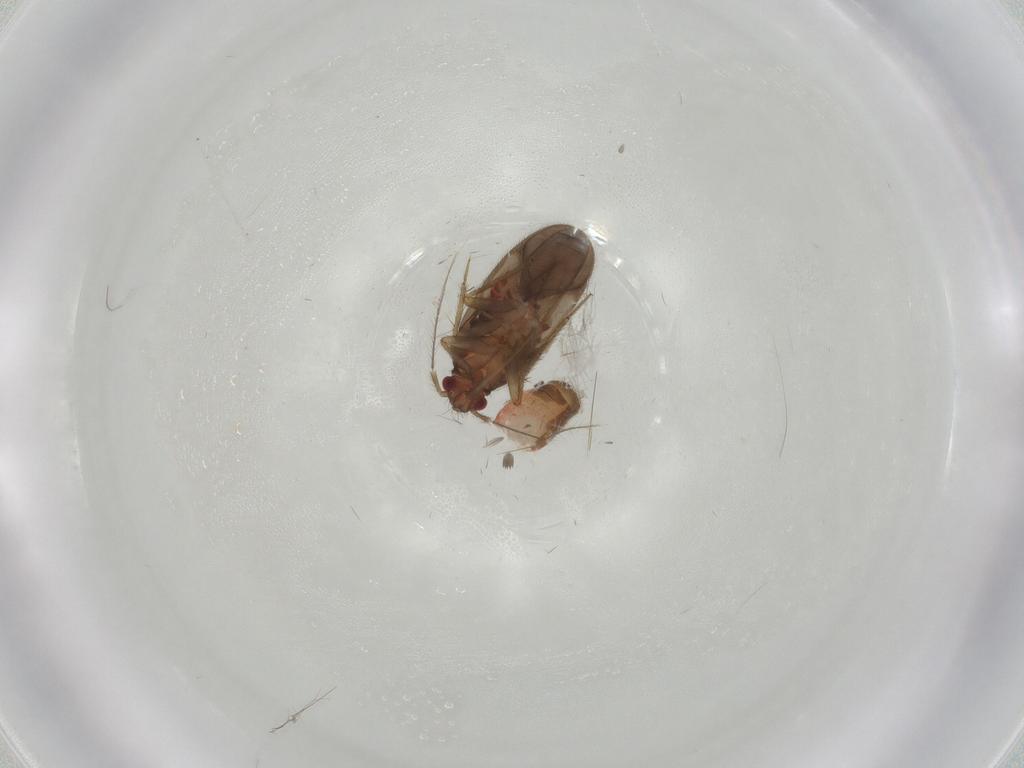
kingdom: Animalia
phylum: Arthropoda
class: Insecta
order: Hemiptera
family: Ceratocombidae
